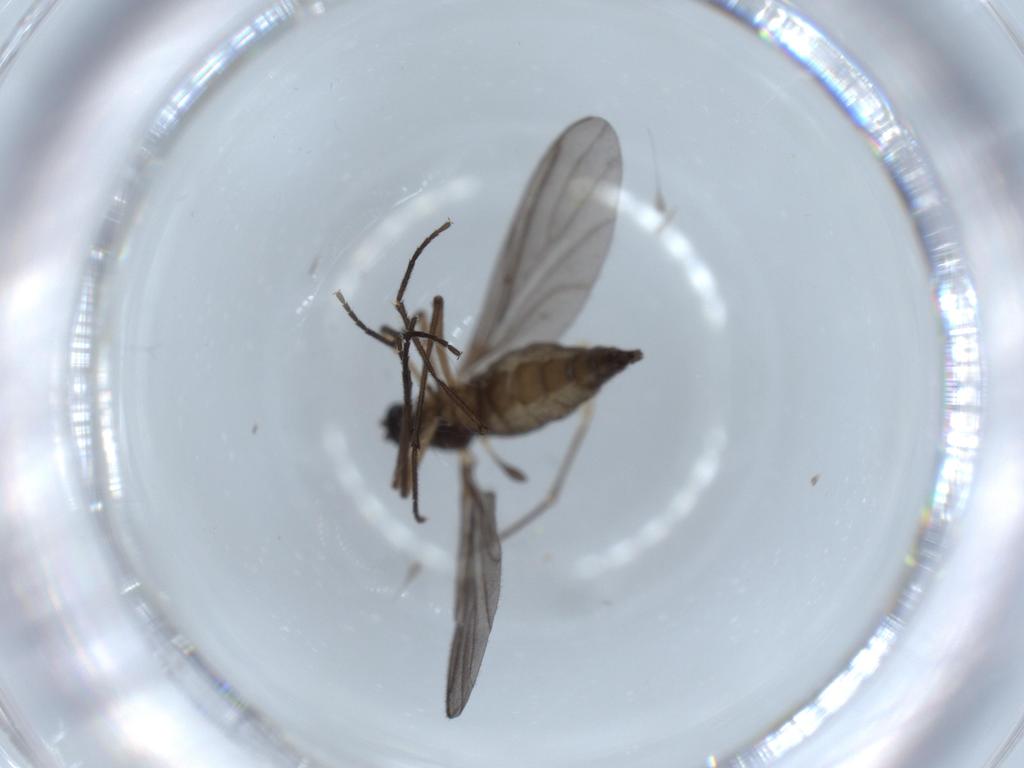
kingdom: Animalia
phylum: Arthropoda
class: Insecta
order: Diptera
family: Sciaridae
